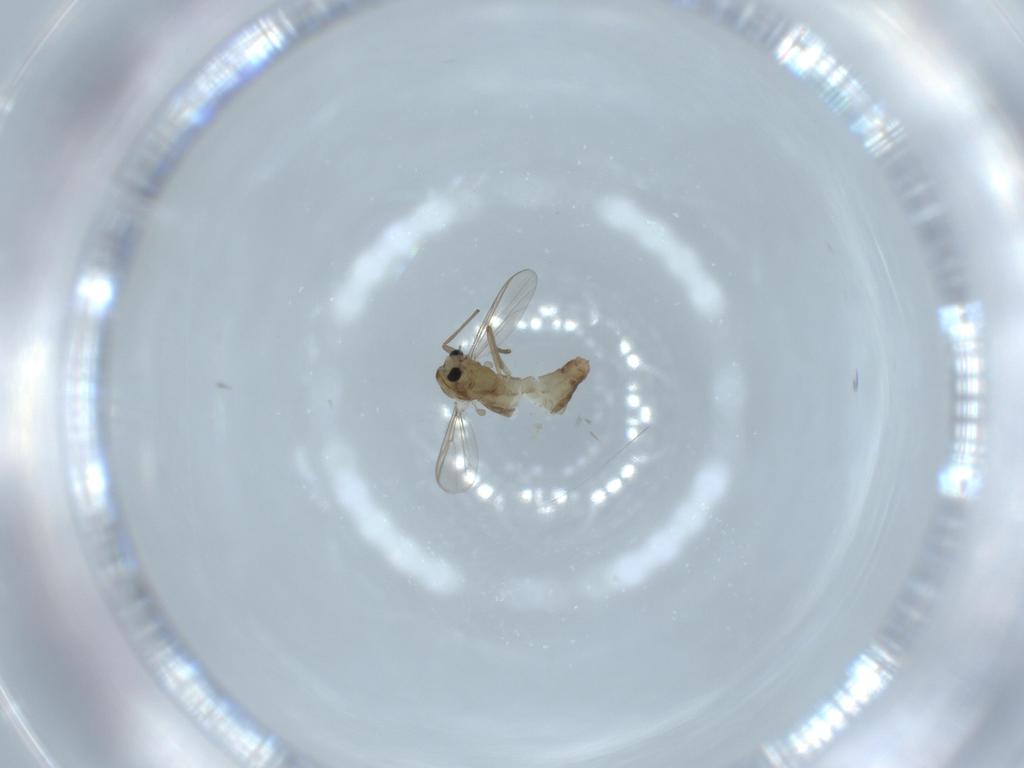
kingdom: Animalia
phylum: Arthropoda
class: Insecta
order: Diptera
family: Chironomidae
